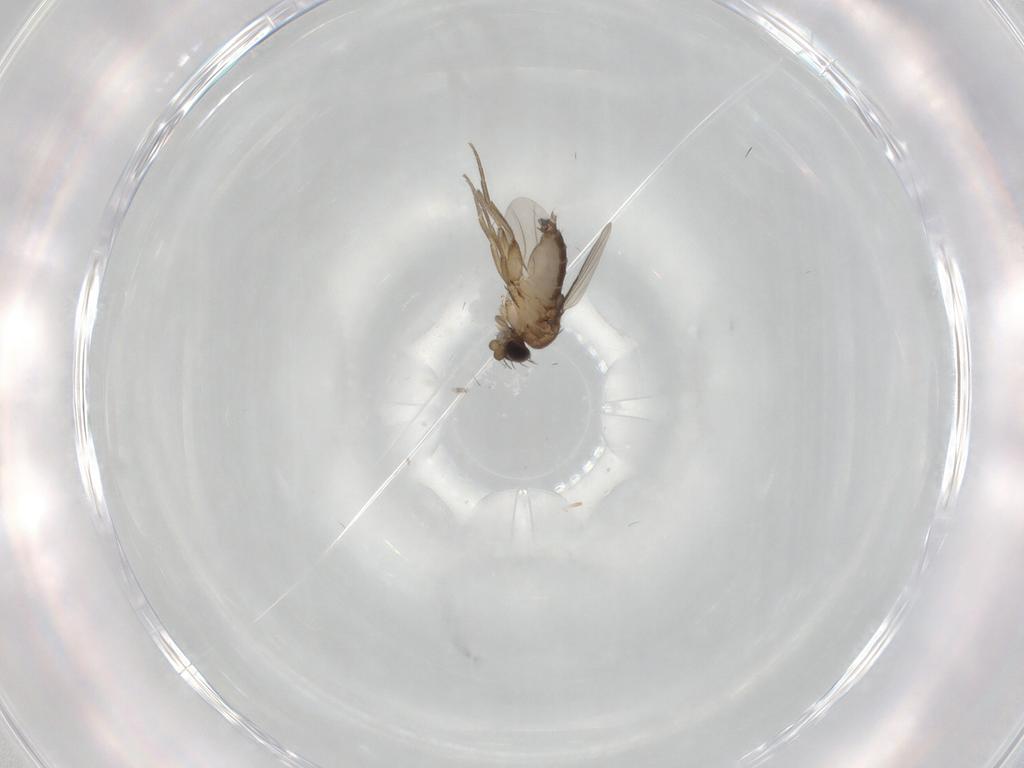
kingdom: Animalia
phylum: Arthropoda
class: Insecta
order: Diptera
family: Phoridae
